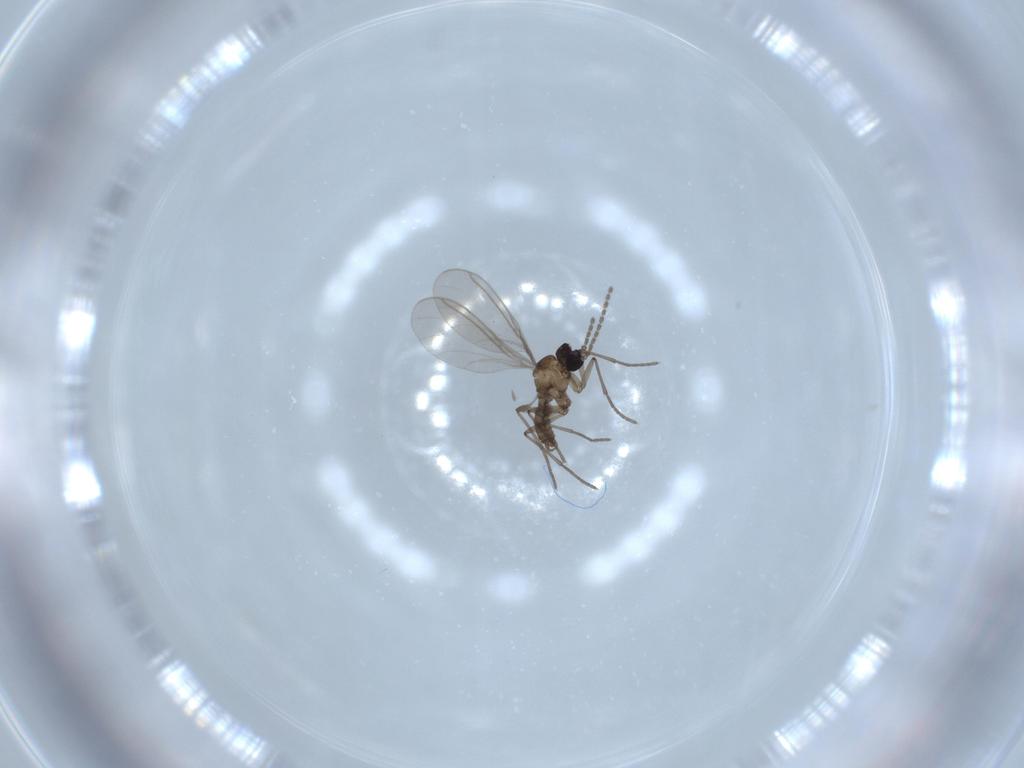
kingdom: Animalia
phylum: Arthropoda
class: Insecta
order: Diptera
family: Sciaridae
